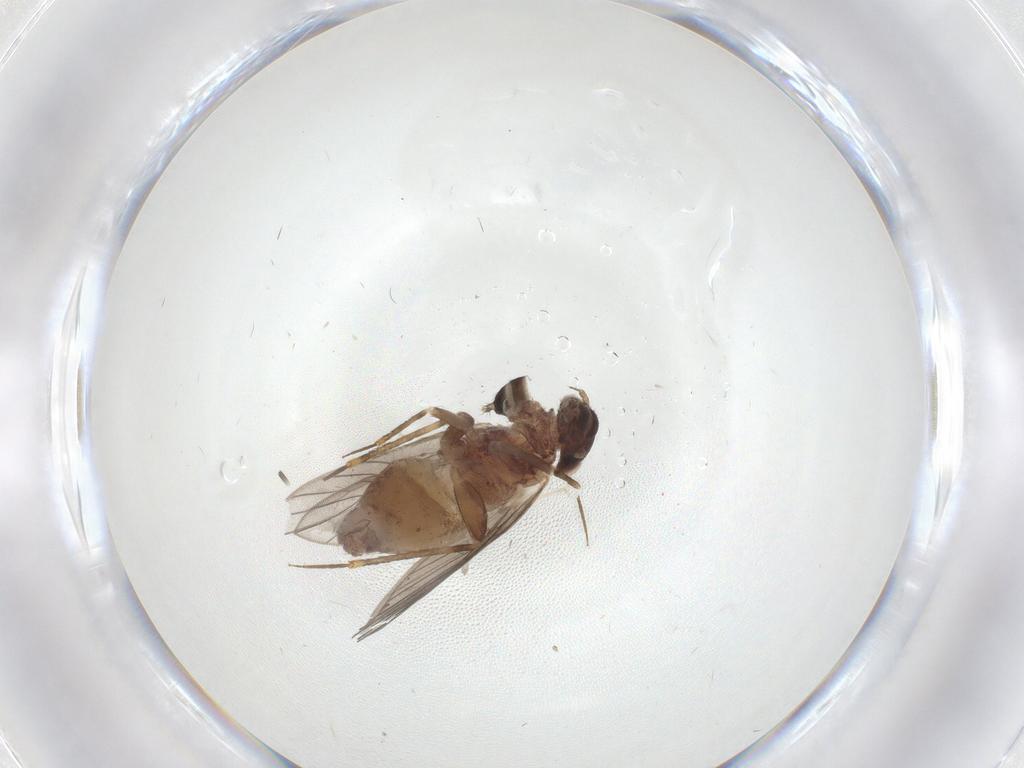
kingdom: Animalia
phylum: Arthropoda
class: Insecta
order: Psocodea
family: Lepidopsocidae
